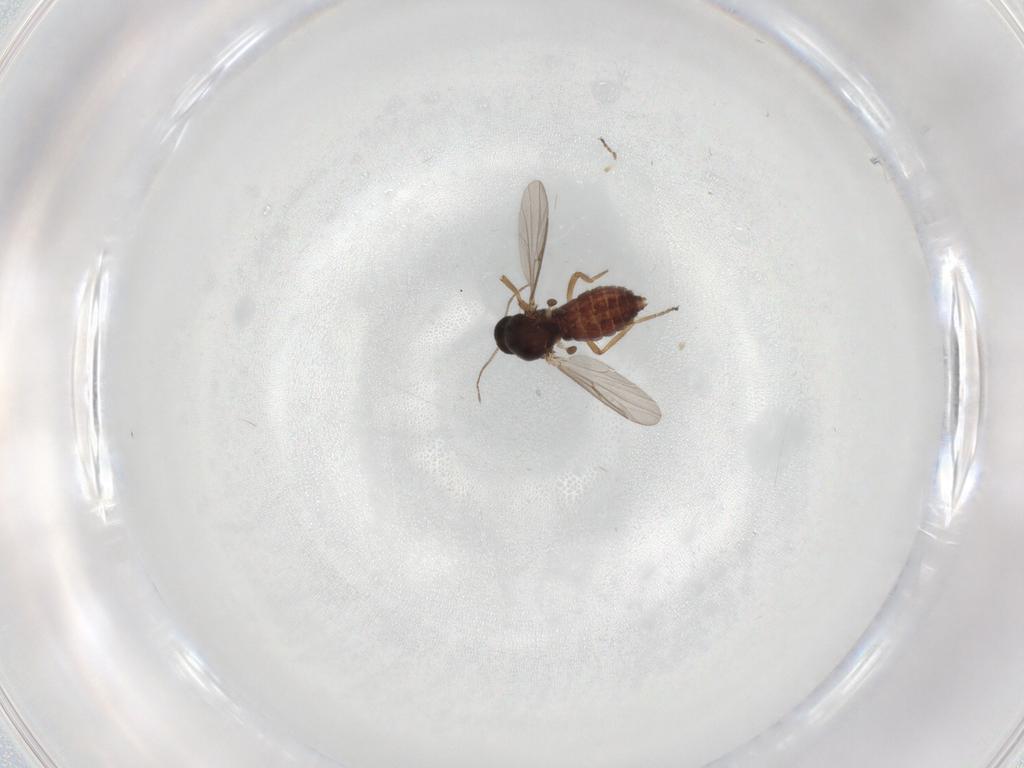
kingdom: Animalia
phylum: Arthropoda
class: Insecta
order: Diptera
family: Ceratopogonidae
